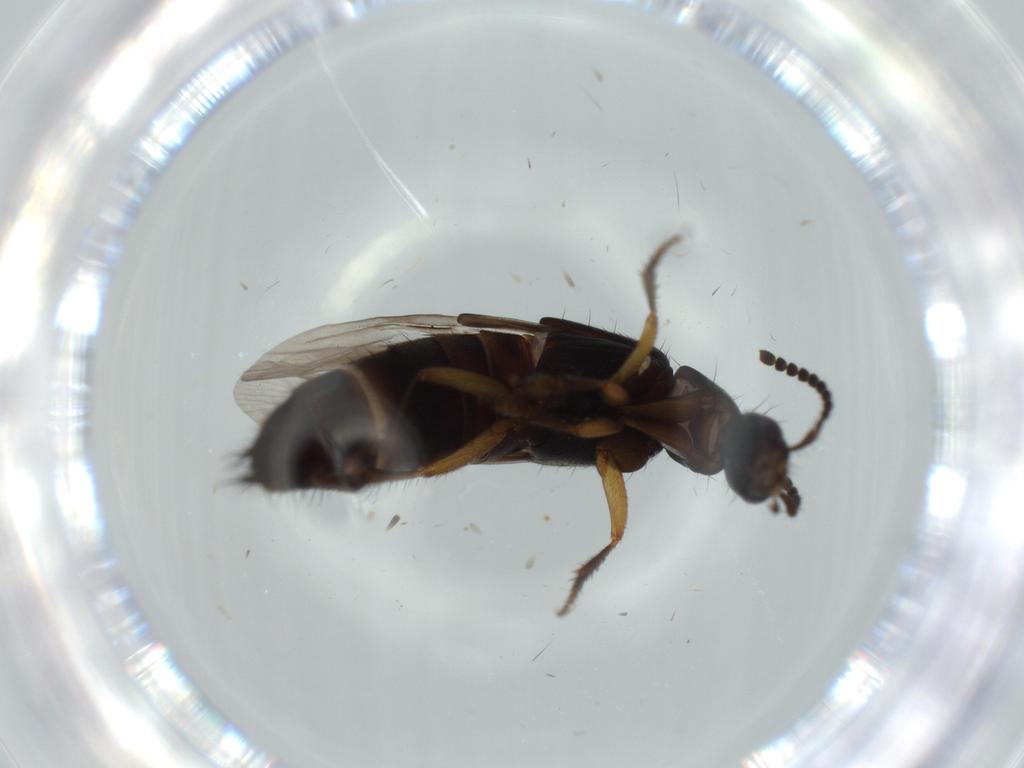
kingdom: Animalia
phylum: Arthropoda
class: Insecta
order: Coleoptera
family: Staphylinidae
